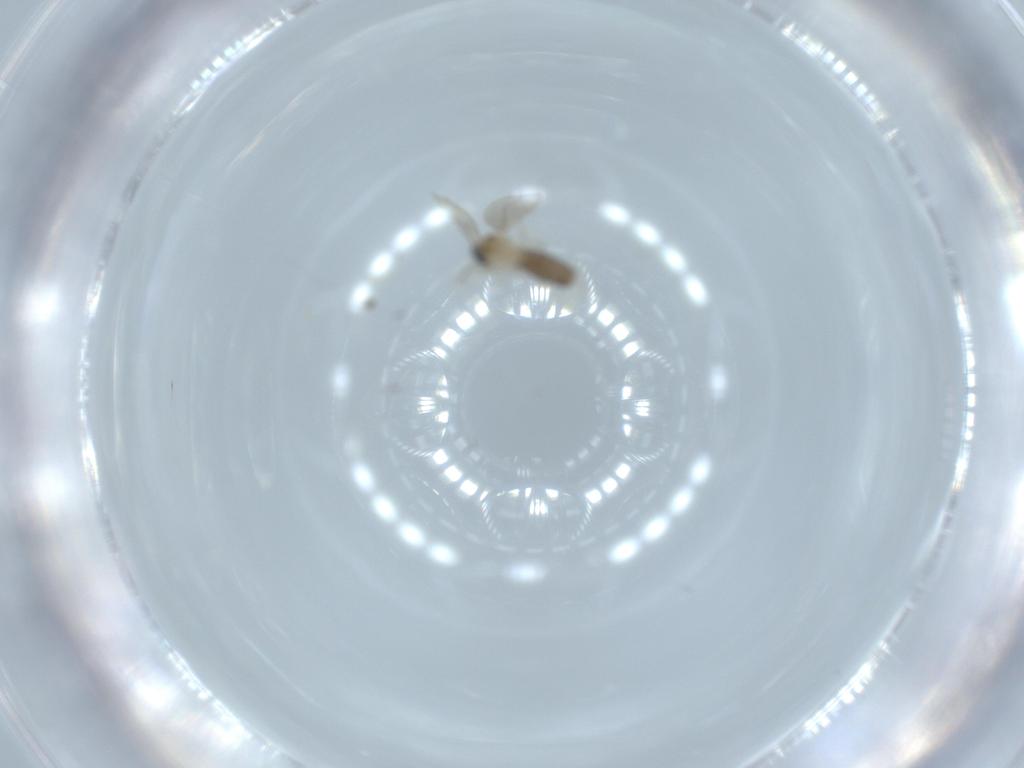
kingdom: Animalia
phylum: Arthropoda
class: Insecta
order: Diptera
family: Cecidomyiidae
